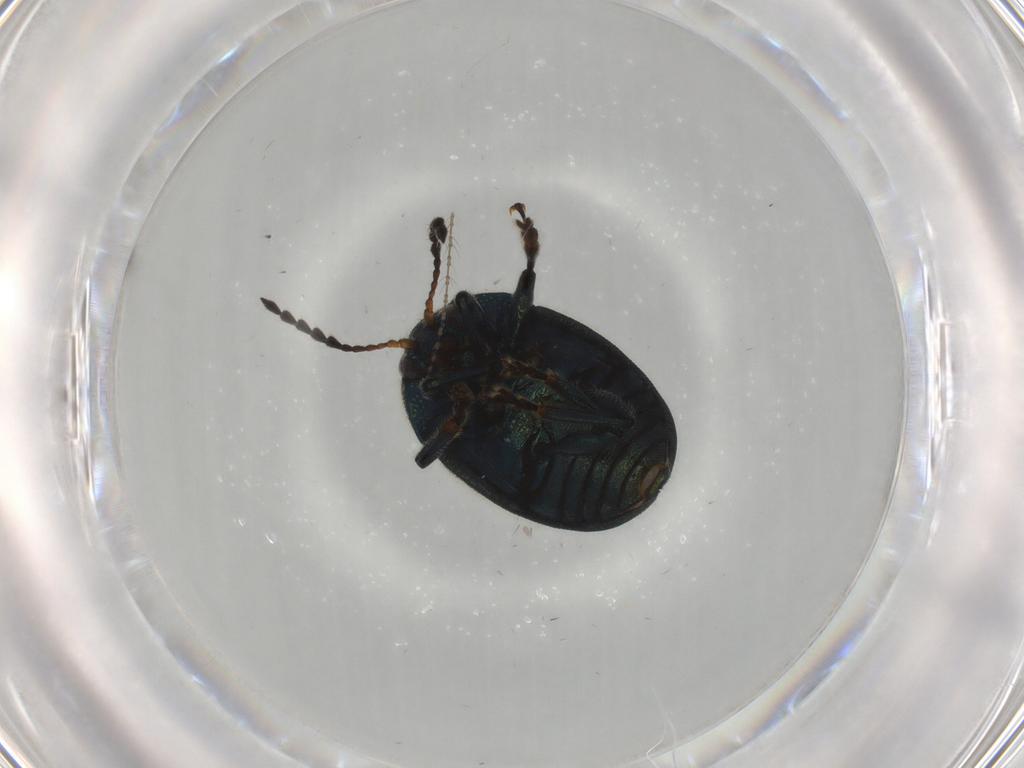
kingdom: Animalia
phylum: Arthropoda
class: Insecta
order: Coleoptera
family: Chrysomelidae
